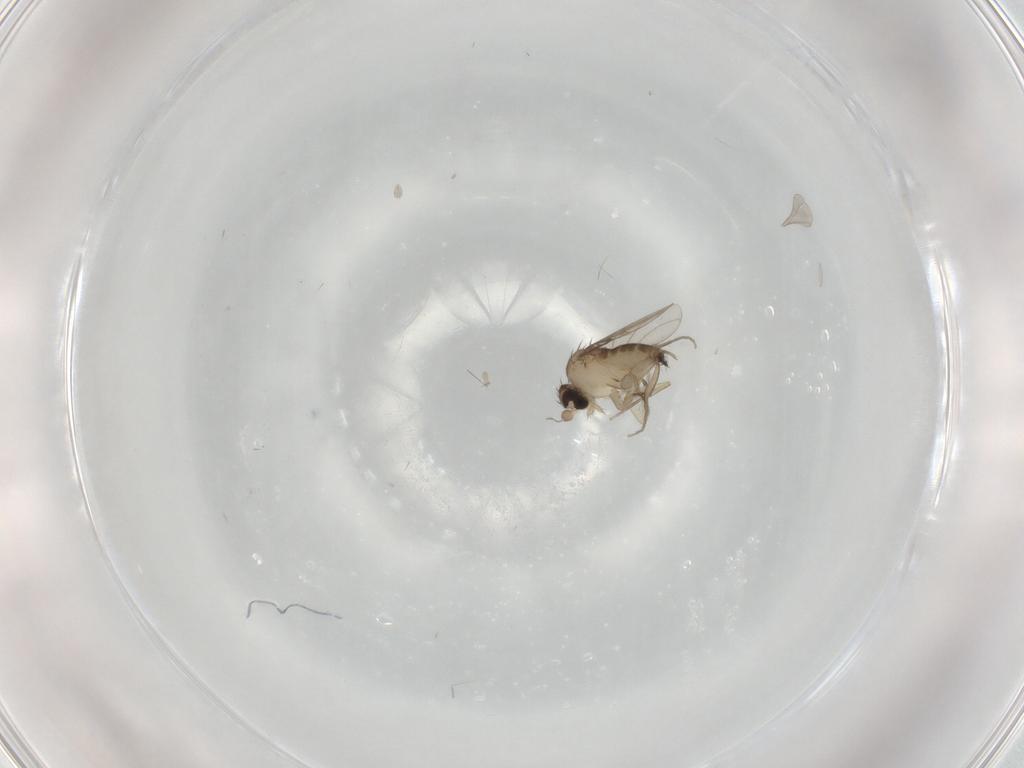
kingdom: Animalia
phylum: Arthropoda
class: Insecta
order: Diptera
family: Phoridae
